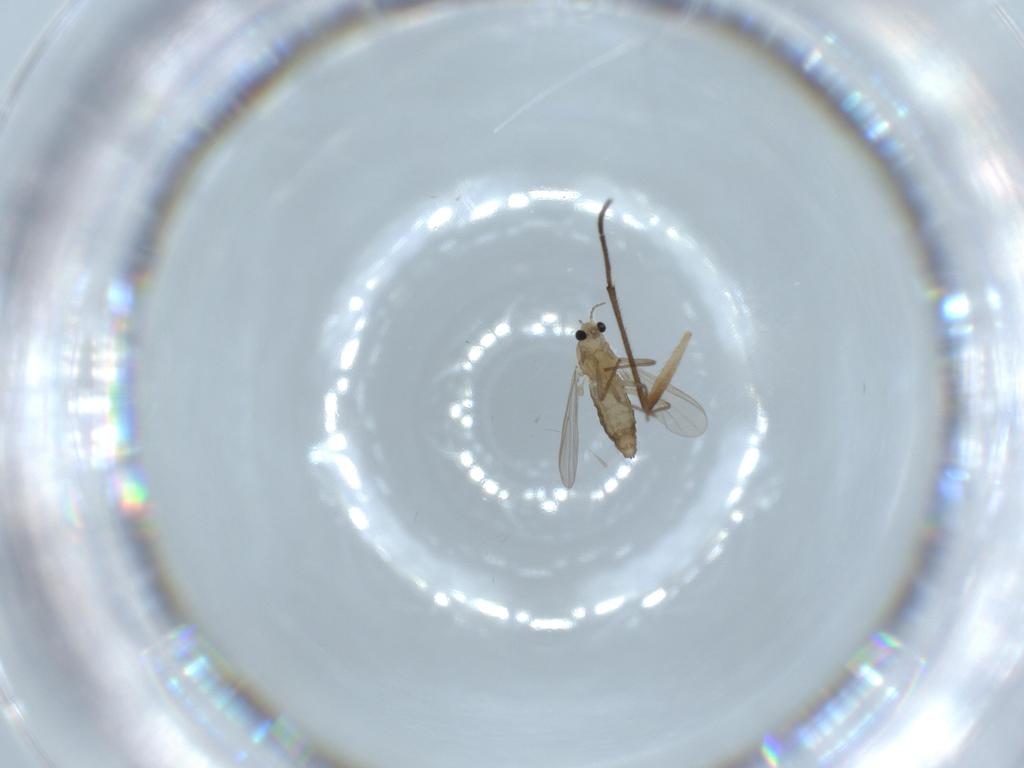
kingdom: Animalia
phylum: Arthropoda
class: Insecta
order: Diptera
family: Chironomidae
